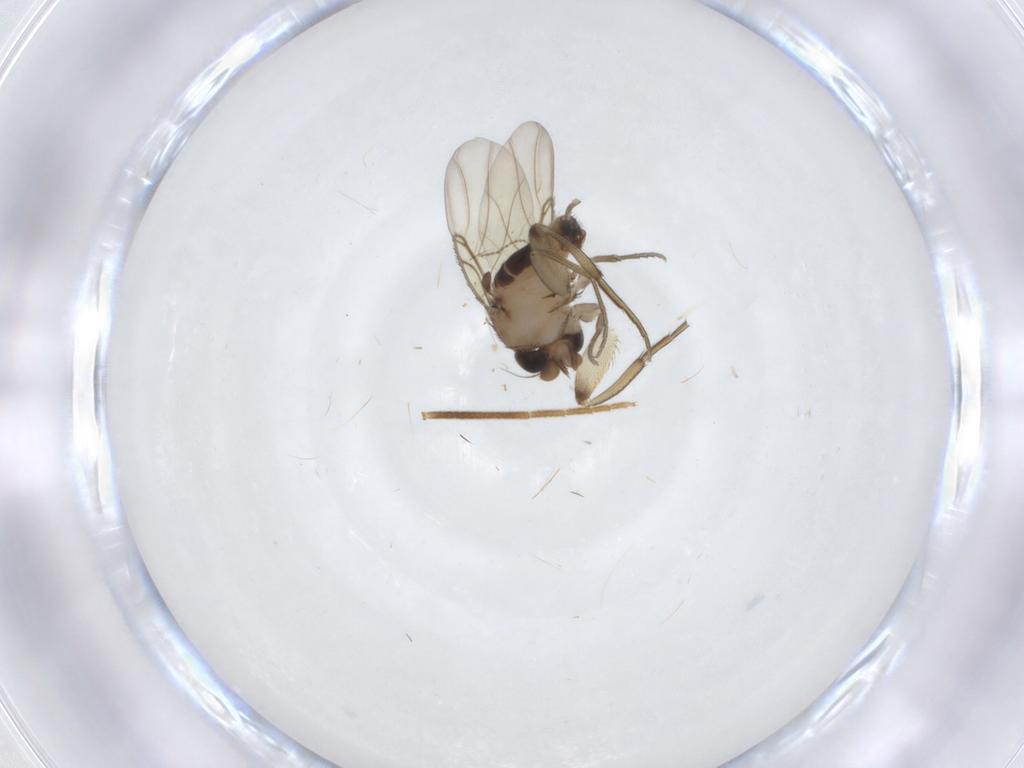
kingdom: Animalia
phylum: Arthropoda
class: Insecta
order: Diptera
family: Phoridae
